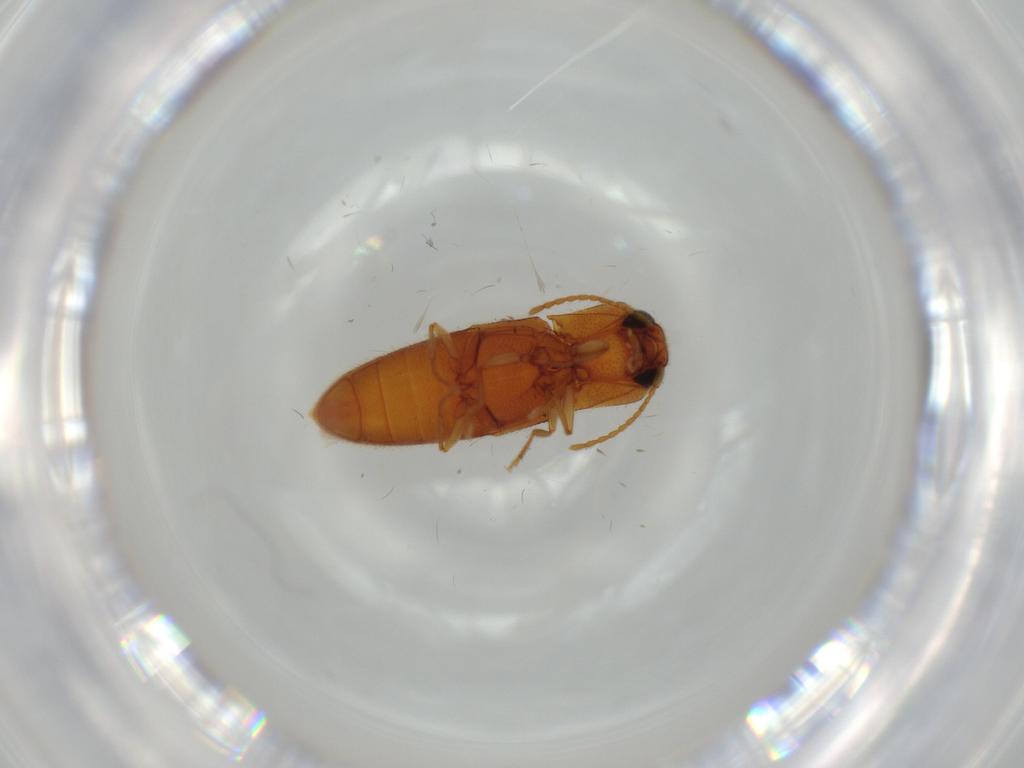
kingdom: Animalia
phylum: Arthropoda
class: Insecta
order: Coleoptera
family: Elateridae
